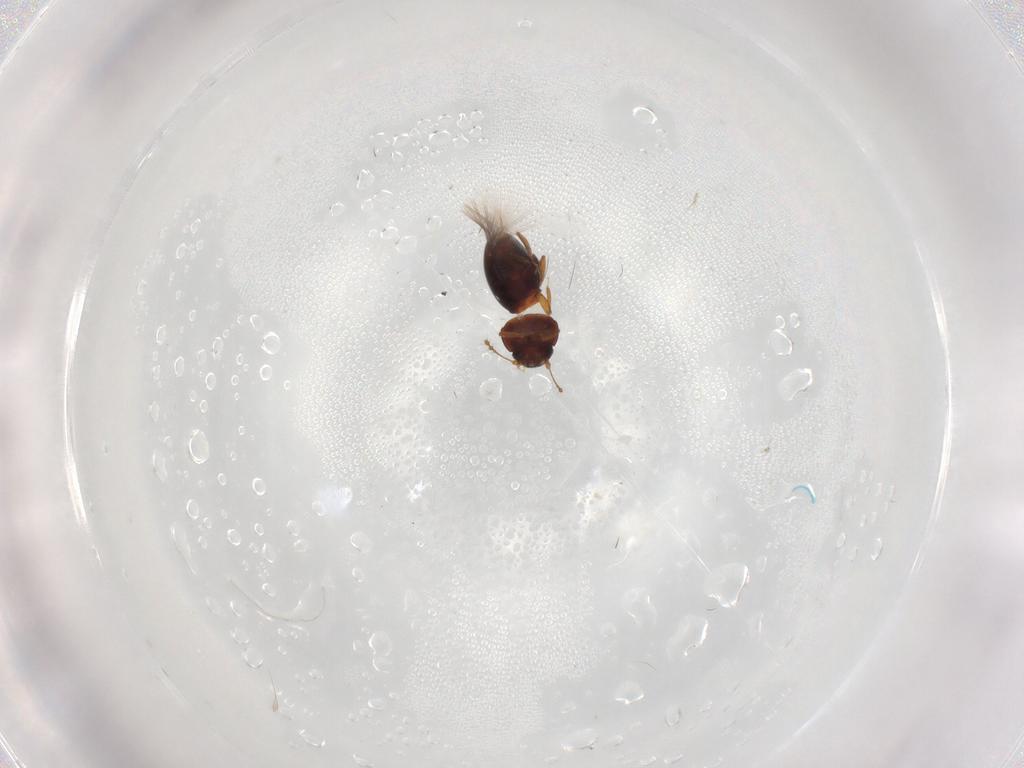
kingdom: Animalia
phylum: Arthropoda
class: Insecta
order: Coleoptera
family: Ptiliidae
